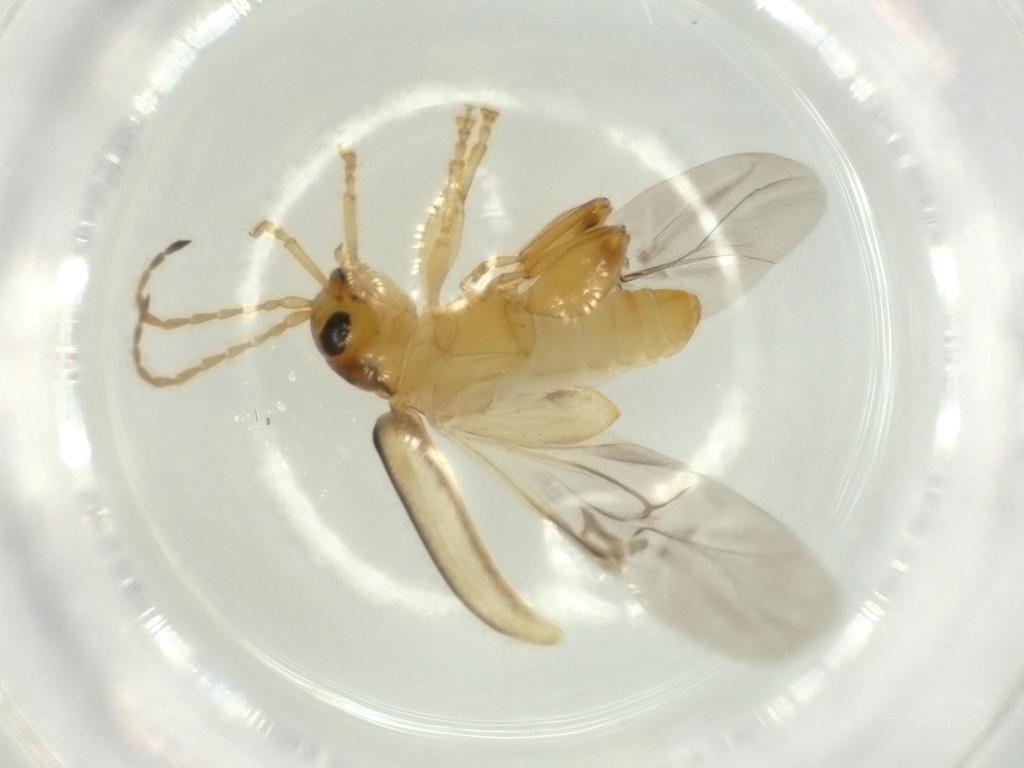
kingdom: Animalia
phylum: Arthropoda
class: Insecta
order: Coleoptera
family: Chrysomelidae
